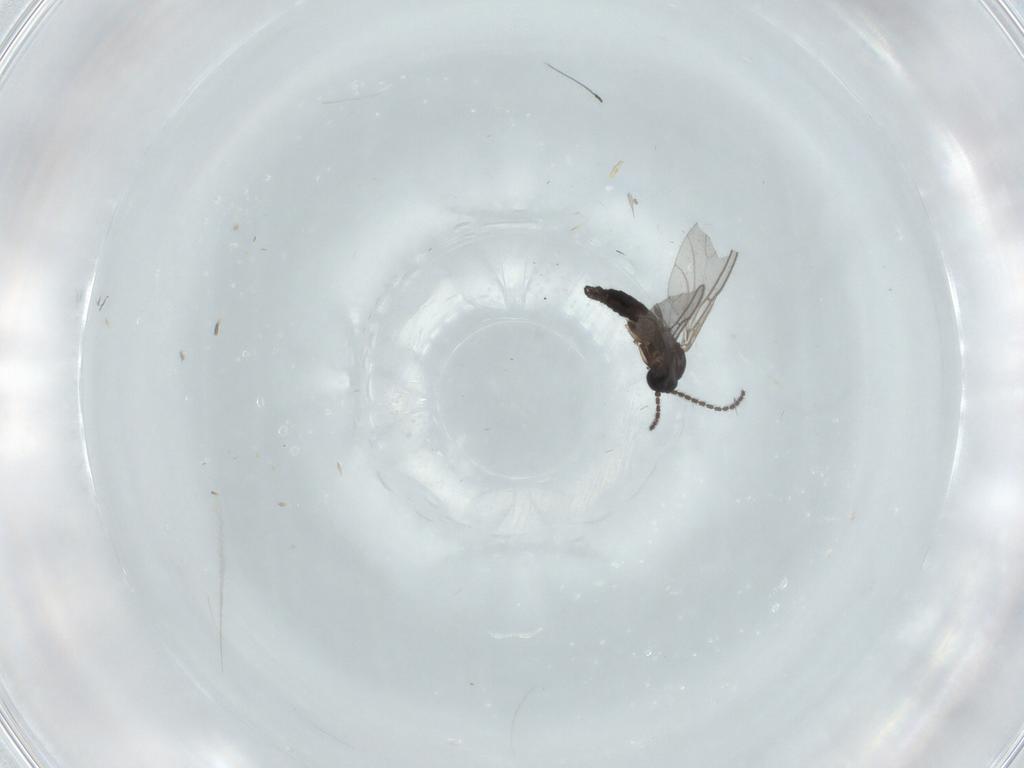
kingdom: Animalia
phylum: Arthropoda
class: Insecta
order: Diptera
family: Sciaridae
